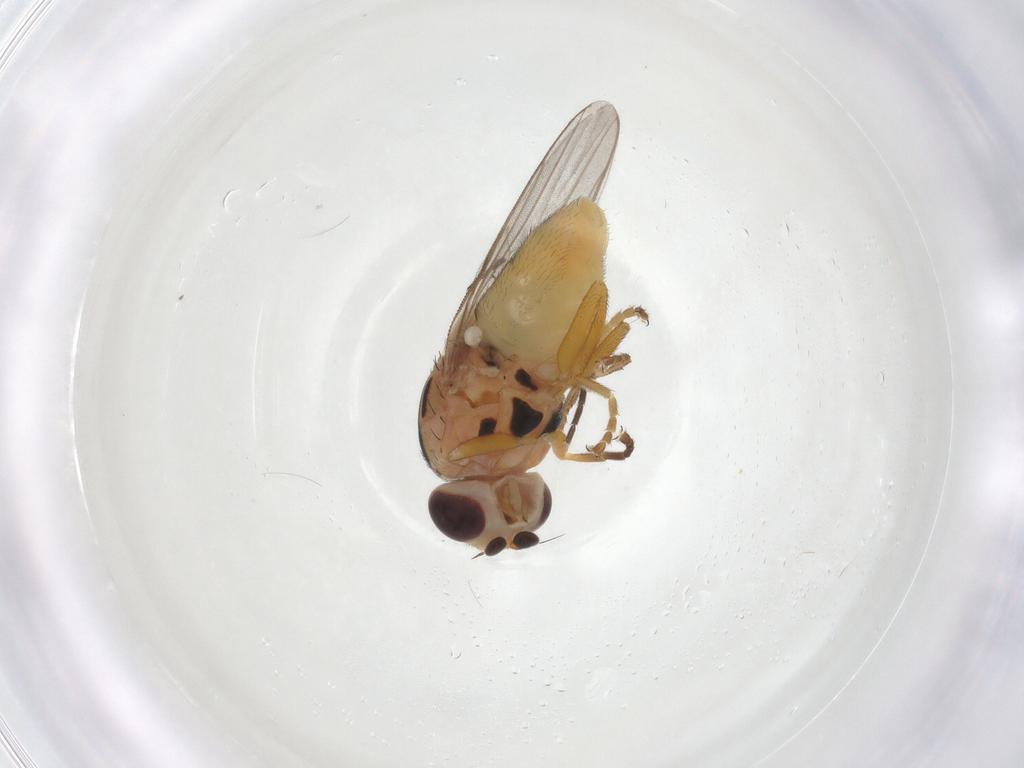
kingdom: Animalia
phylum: Arthropoda
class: Insecta
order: Diptera
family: Chloropidae
